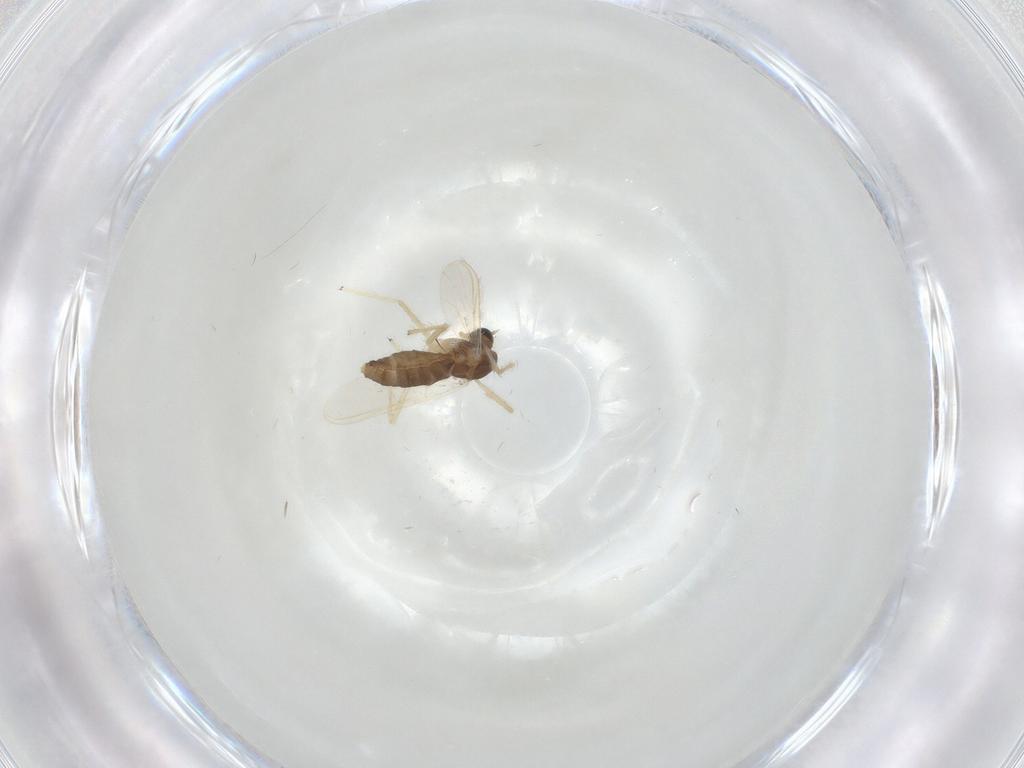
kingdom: Animalia
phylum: Arthropoda
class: Insecta
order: Diptera
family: Chironomidae
